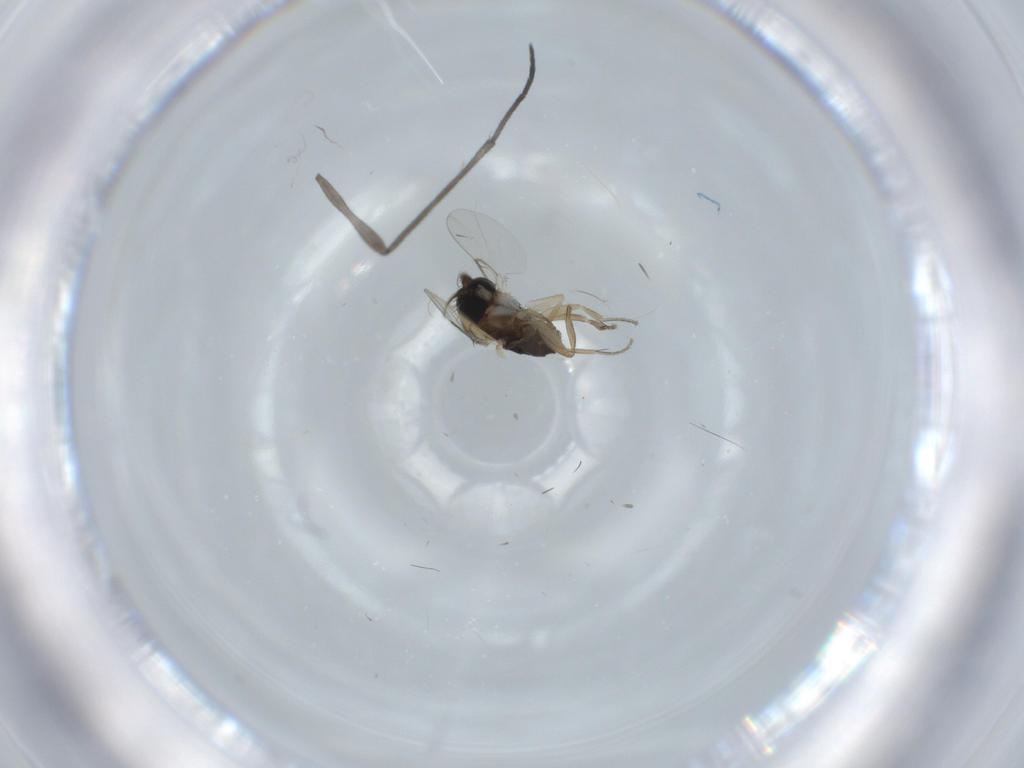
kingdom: Animalia
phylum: Arthropoda
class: Insecta
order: Diptera
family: Phoridae
